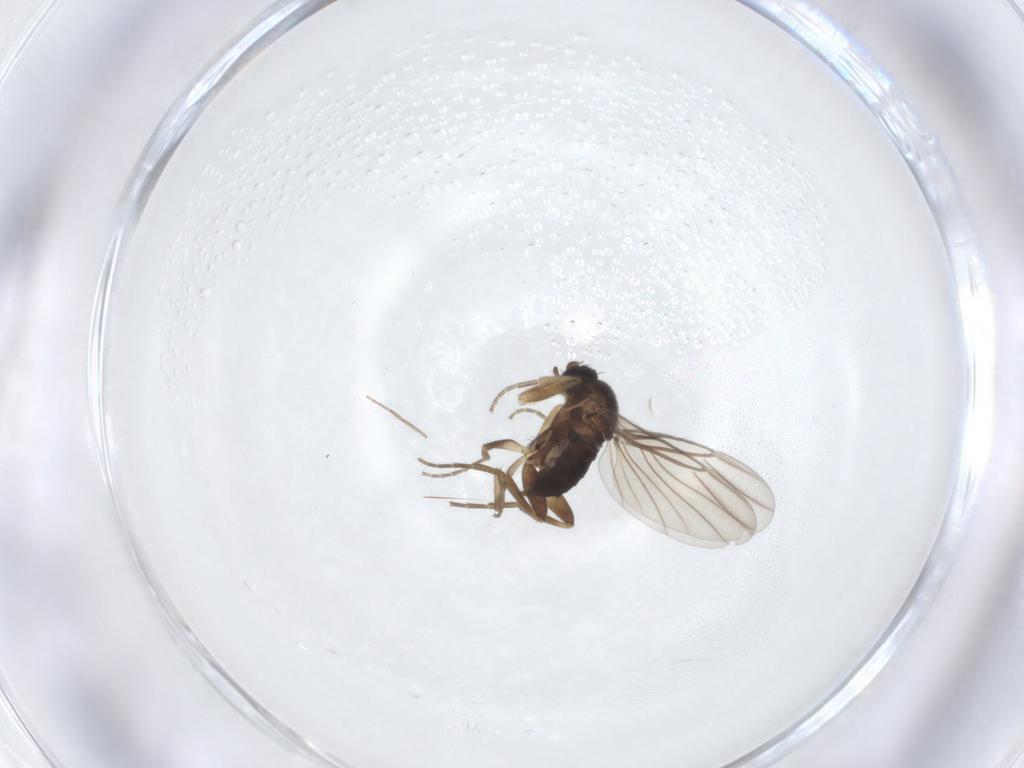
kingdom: Animalia
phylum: Arthropoda
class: Insecta
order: Diptera
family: Phoridae
